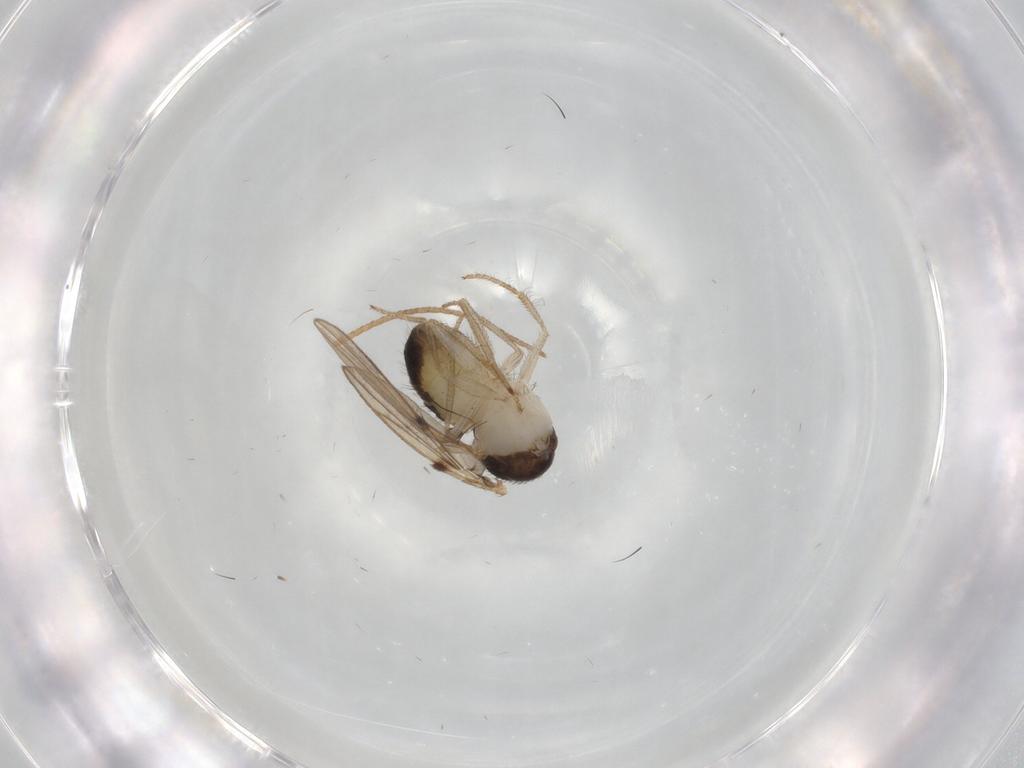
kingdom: Animalia
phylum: Arthropoda
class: Insecta
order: Diptera
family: Drosophilidae
